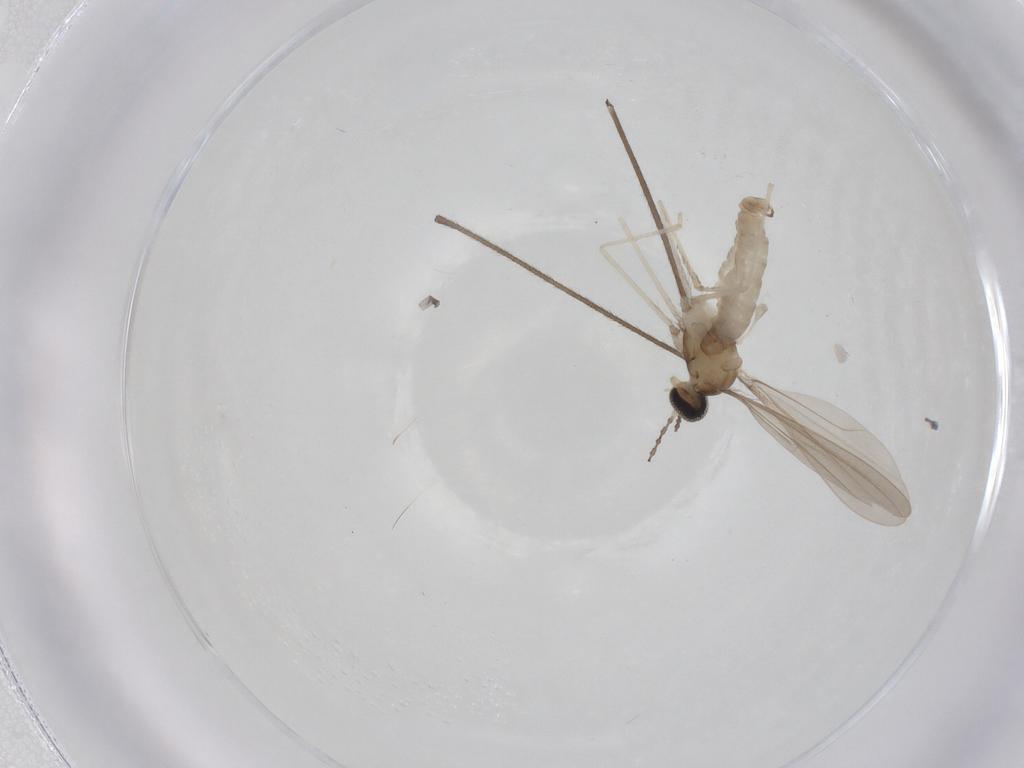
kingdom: Animalia
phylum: Arthropoda
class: Insecta
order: Diptera
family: Cecidomyiidae
